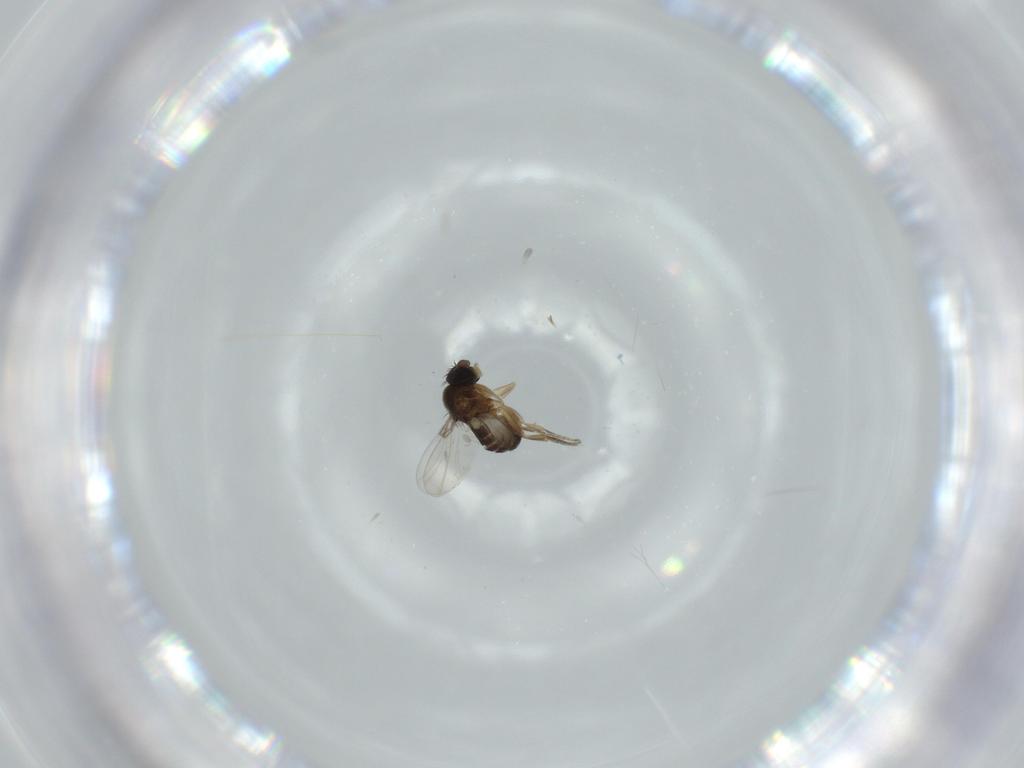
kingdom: Animalia
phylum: Arthropoda
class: Insecta
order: Diptera
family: Phoridae
